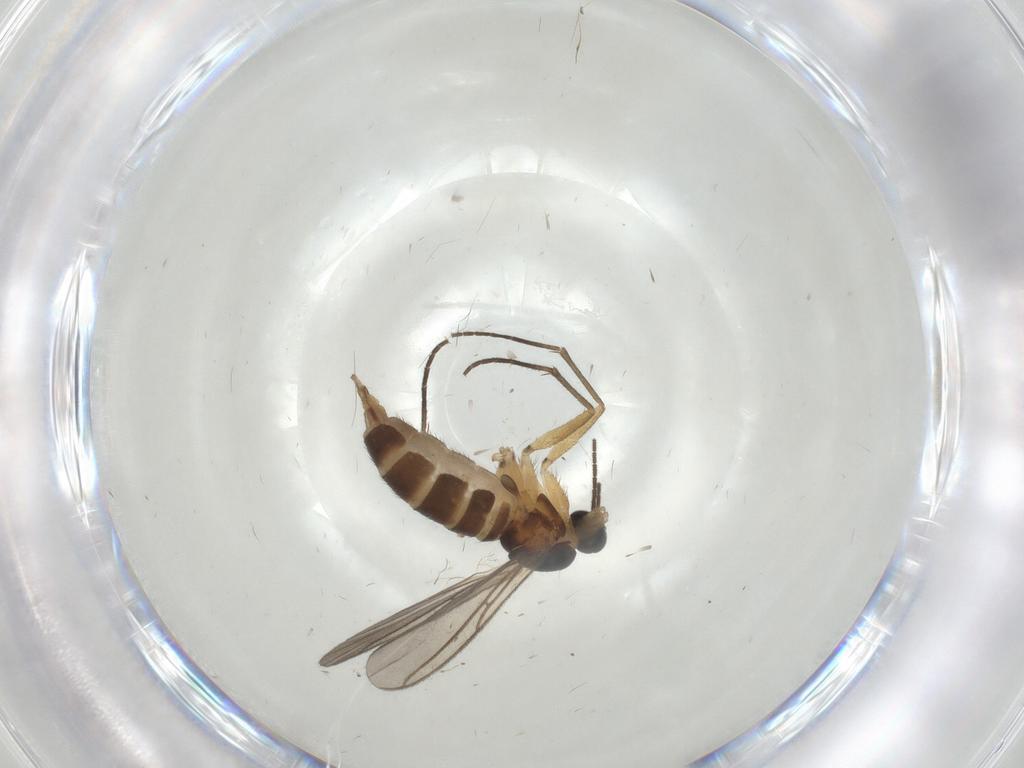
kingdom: Animalia
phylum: Arthropoda
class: Insecta
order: Diptera
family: Sciaridae
